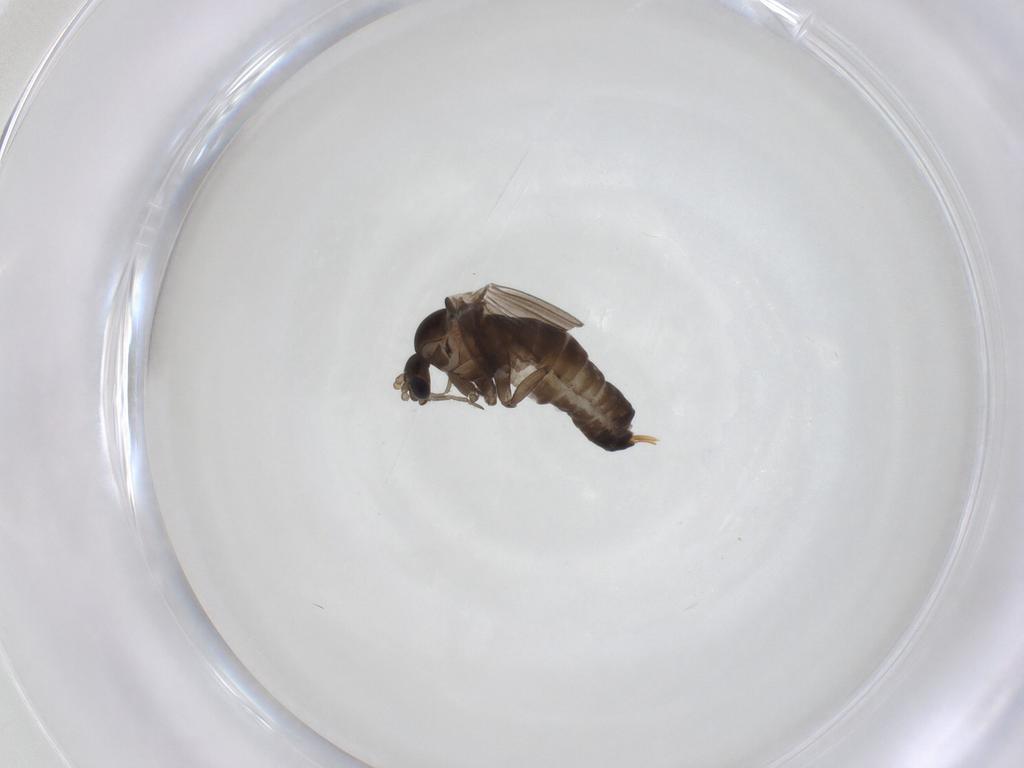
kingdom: Animalia
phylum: Arthropoda
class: Insecta
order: Diptera
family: Psychodidae
